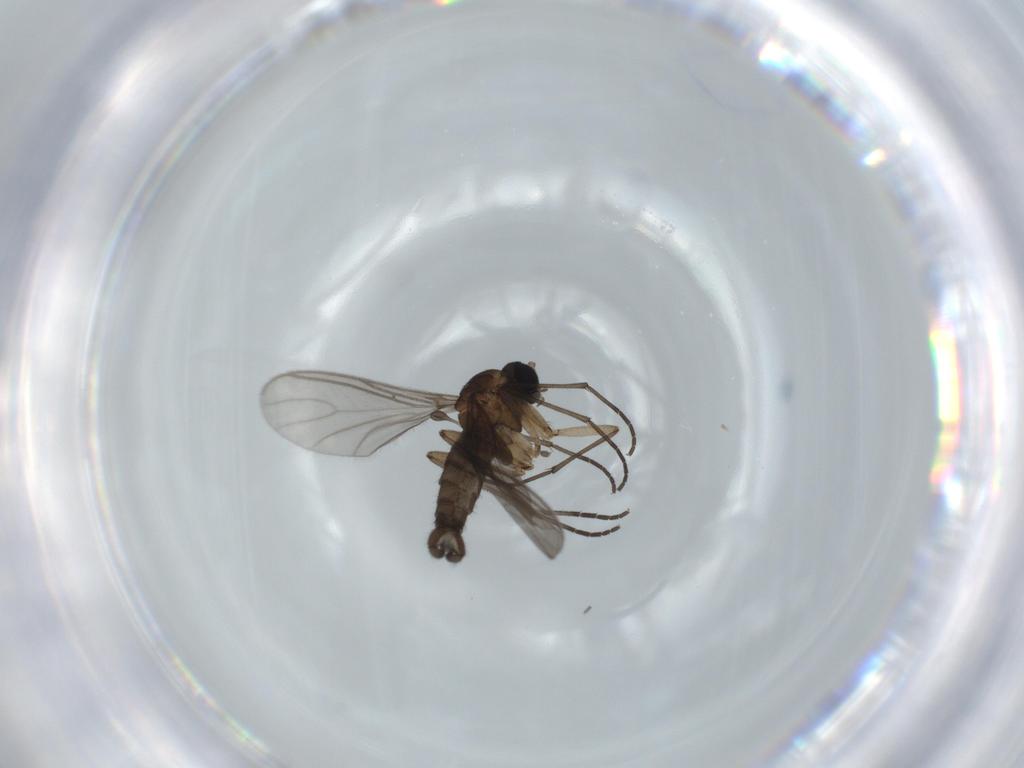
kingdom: Animalia
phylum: Arthropoda
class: Insecta
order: Diptera
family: Sciaridae
